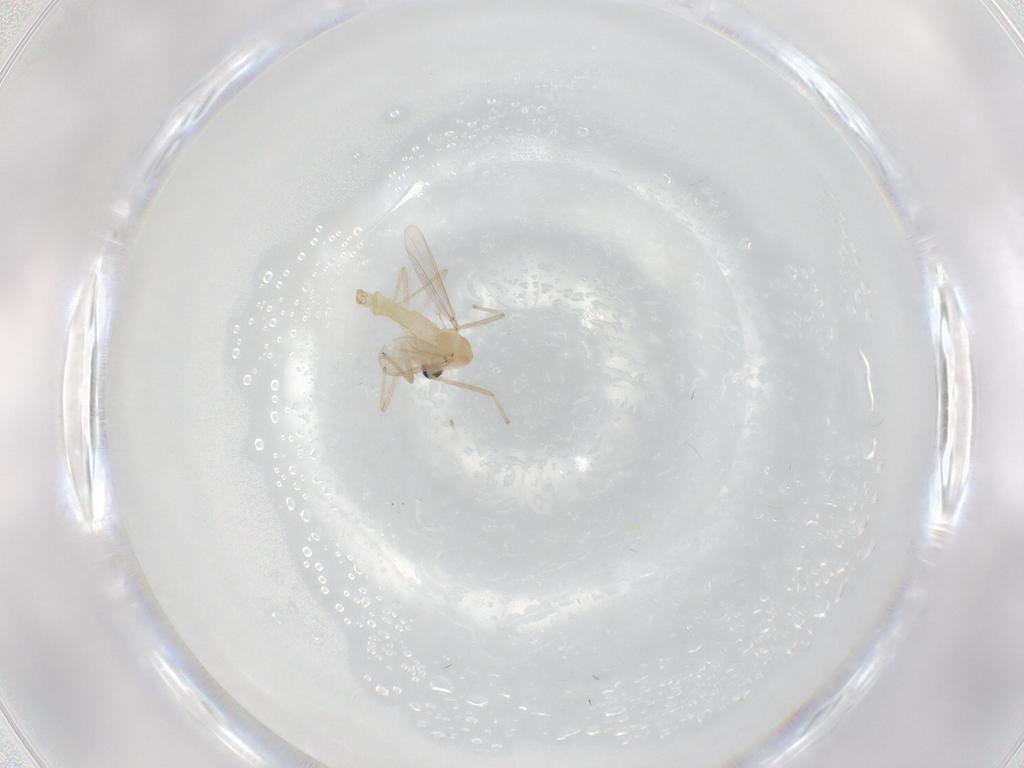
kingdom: Animalia
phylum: Arthropoda
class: Insecta
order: Diptera
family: Chironomidae
